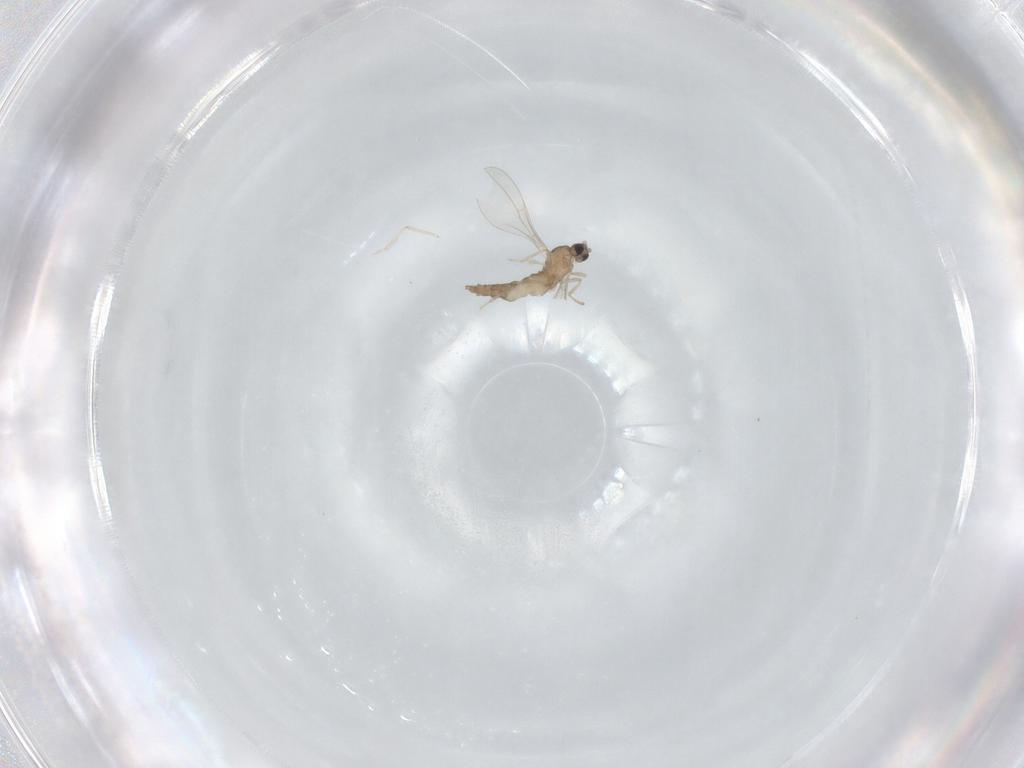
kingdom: Animalia
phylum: Arthropoda
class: Insecta
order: Diptera
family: Cecidomyiidae
